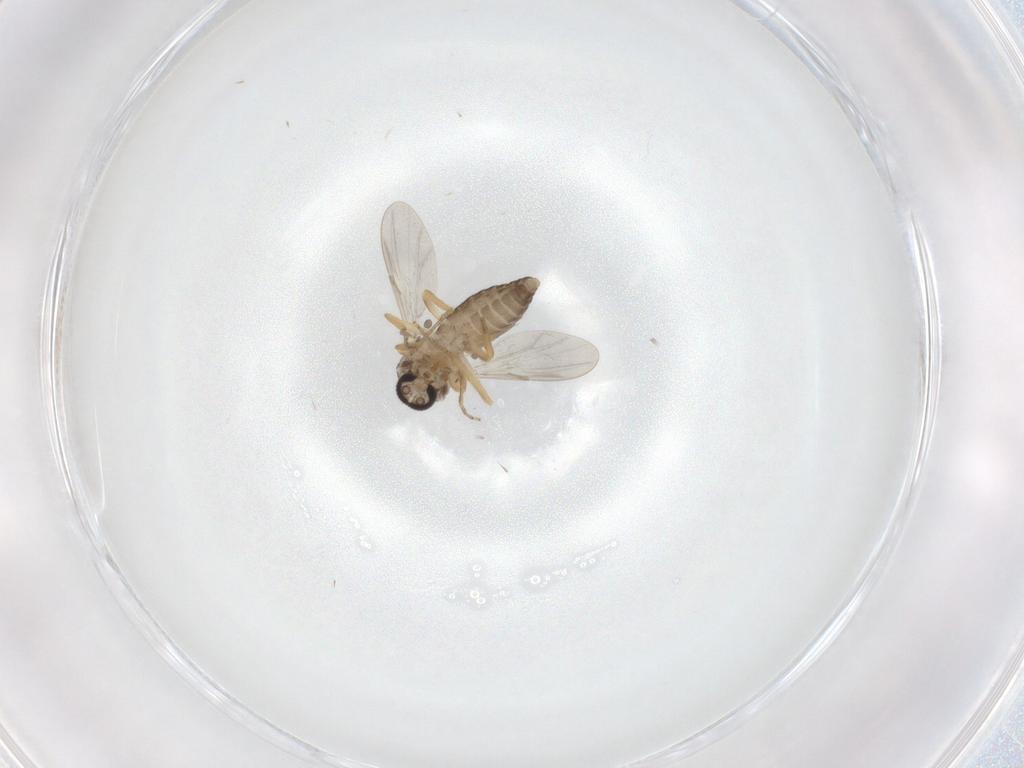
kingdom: Animalia
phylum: Arthropoda
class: Insecta
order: Diptera
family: Ceratopogonidae
